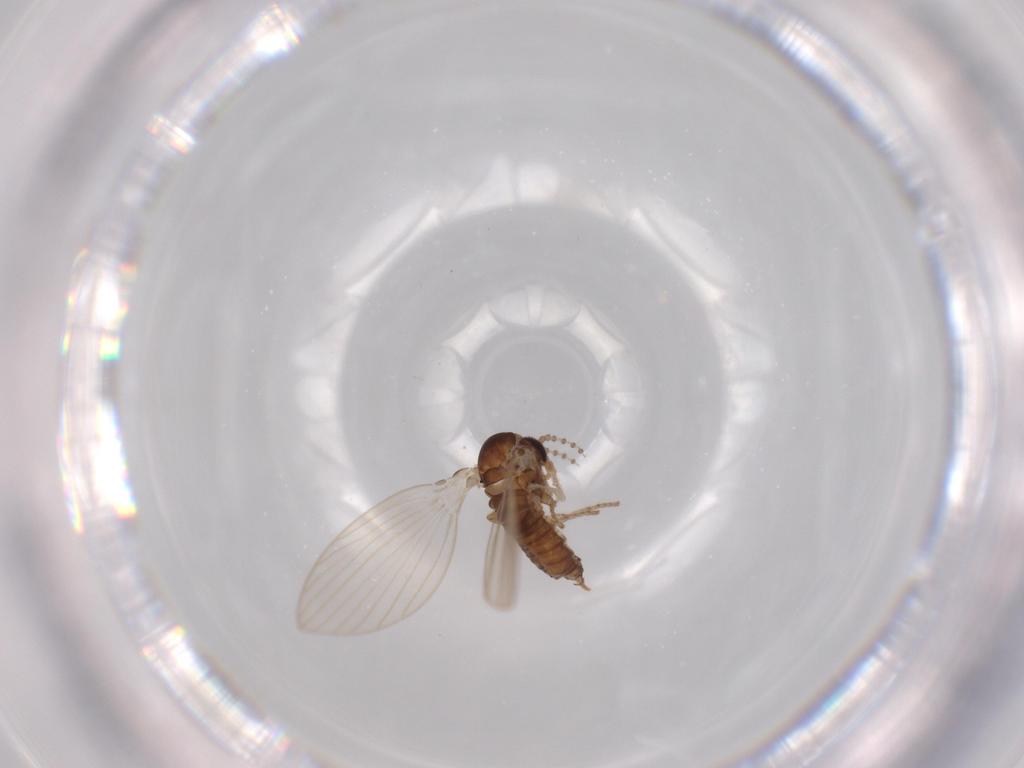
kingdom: Animalia
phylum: Arthropoda
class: Insecta
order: Diptera
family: Psychodidae
